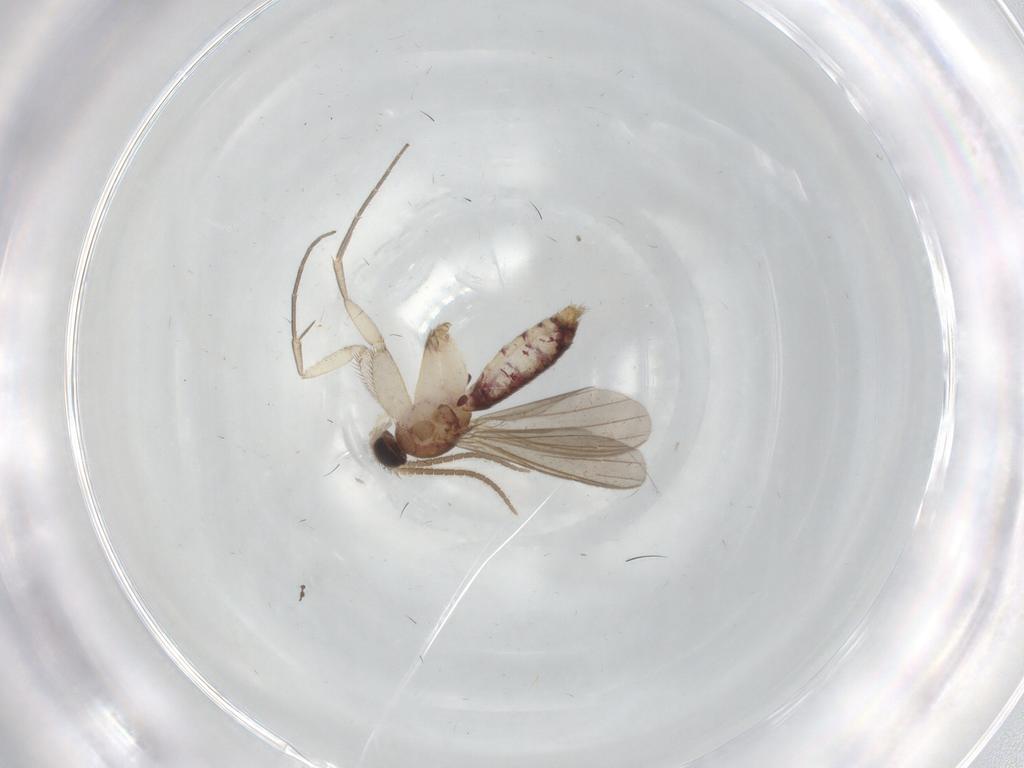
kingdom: Animalia
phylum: Arthropoda
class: Insecta
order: Diptera
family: Mycetophilidae
